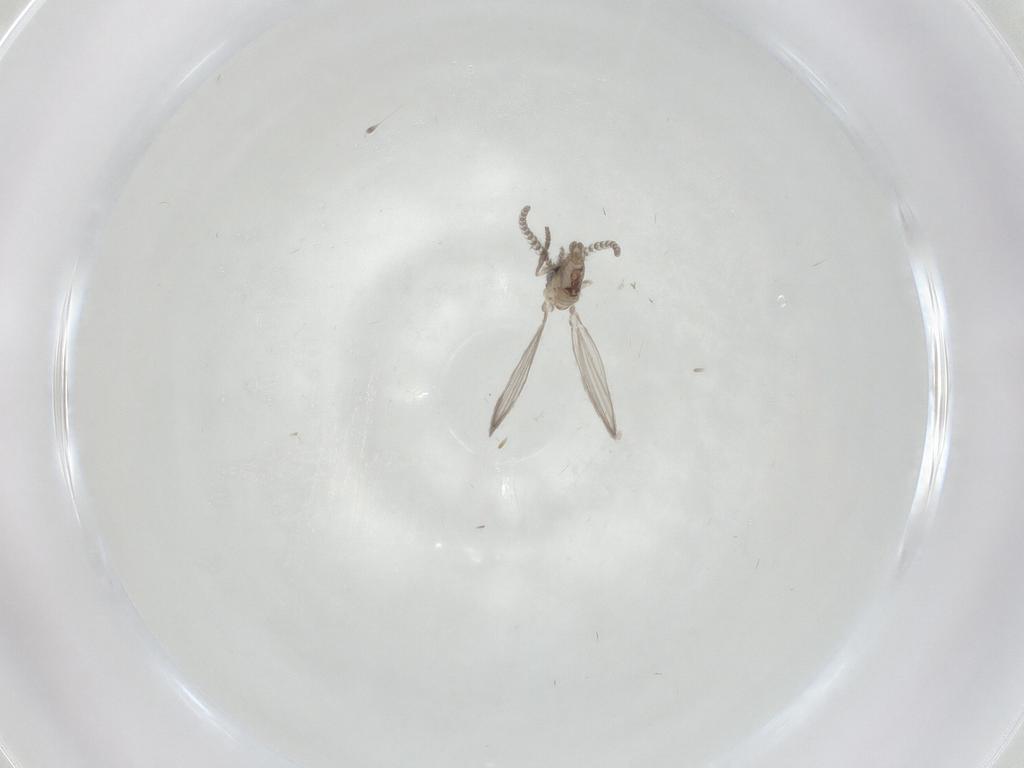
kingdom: Animalia
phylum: Arthropoda
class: Insecta
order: Diptera
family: Psychodidae
